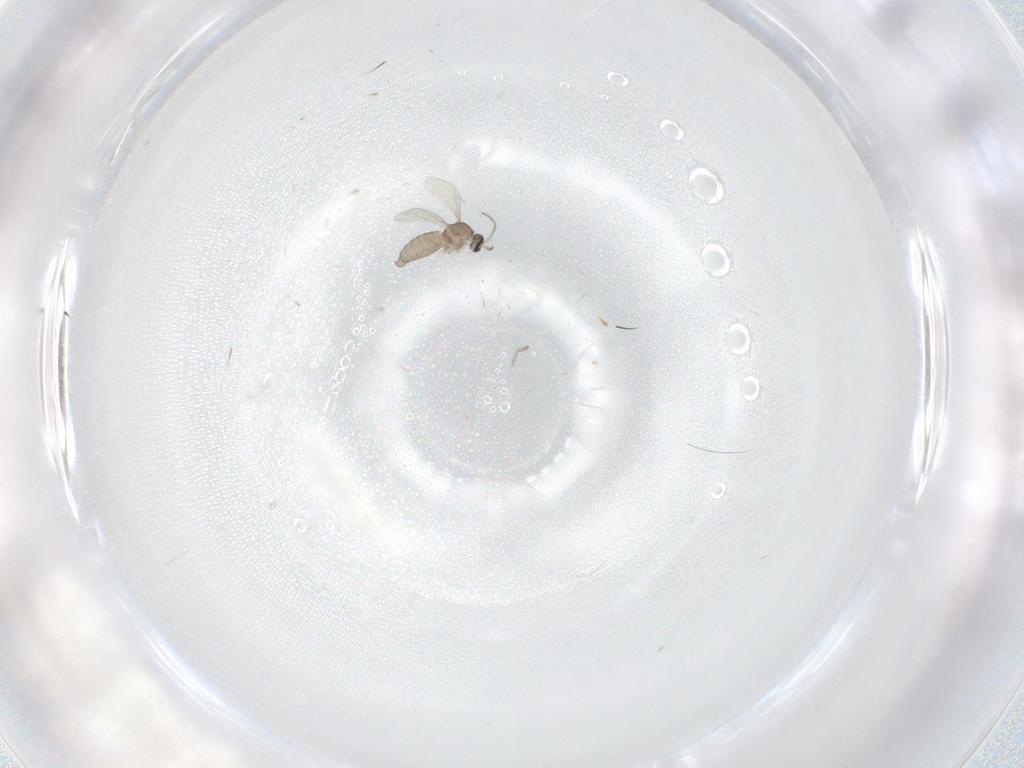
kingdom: Animalia
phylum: Arthropoda
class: Insecta
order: Diptera
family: Cecidomyiidae
